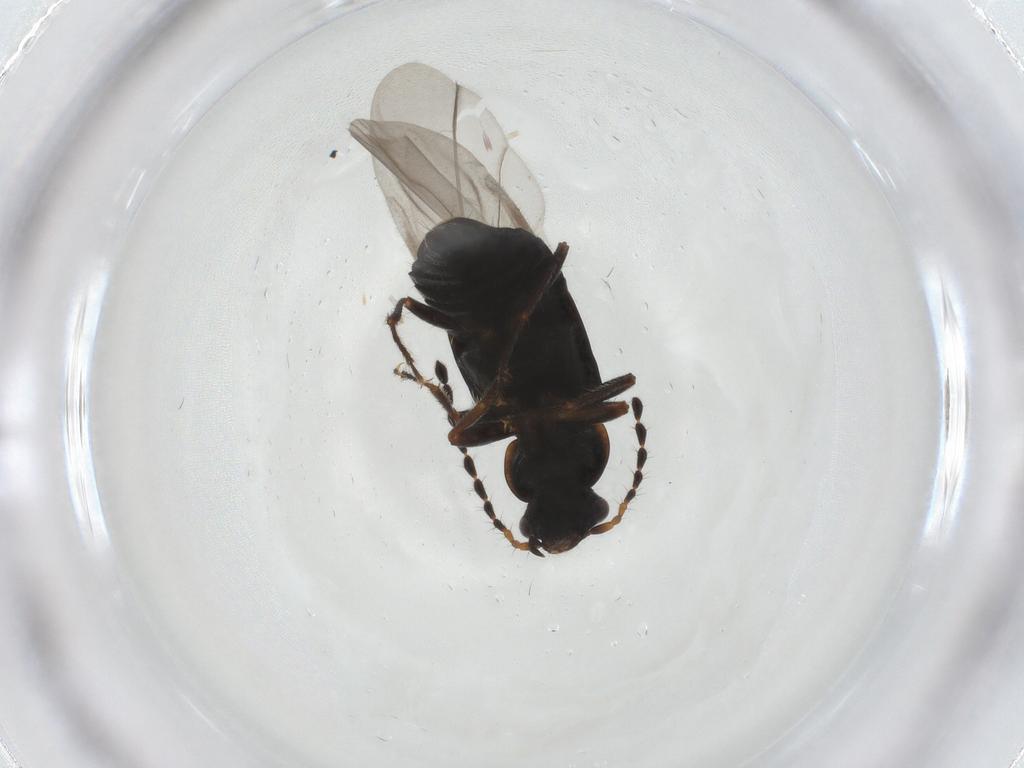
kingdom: Animalia
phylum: Arthropoda
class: Insecta
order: Coleoptera
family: Staphylinidae
